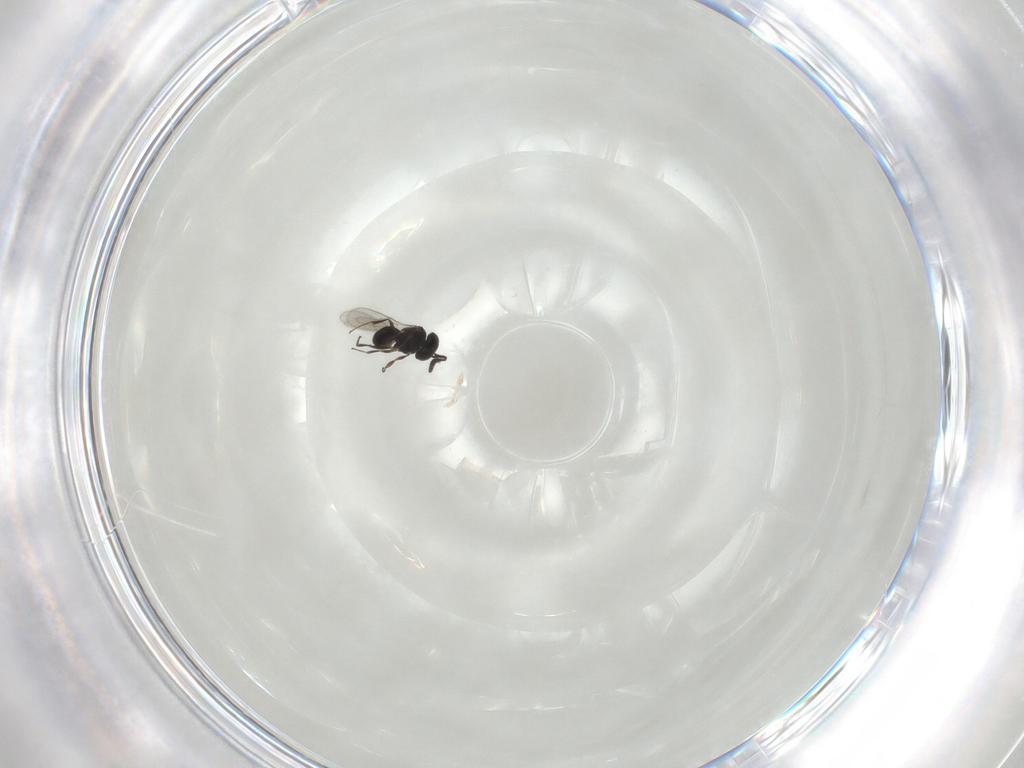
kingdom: Animalia
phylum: Arthropoda
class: Insecta
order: Hymenoptera
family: Scelionidae
